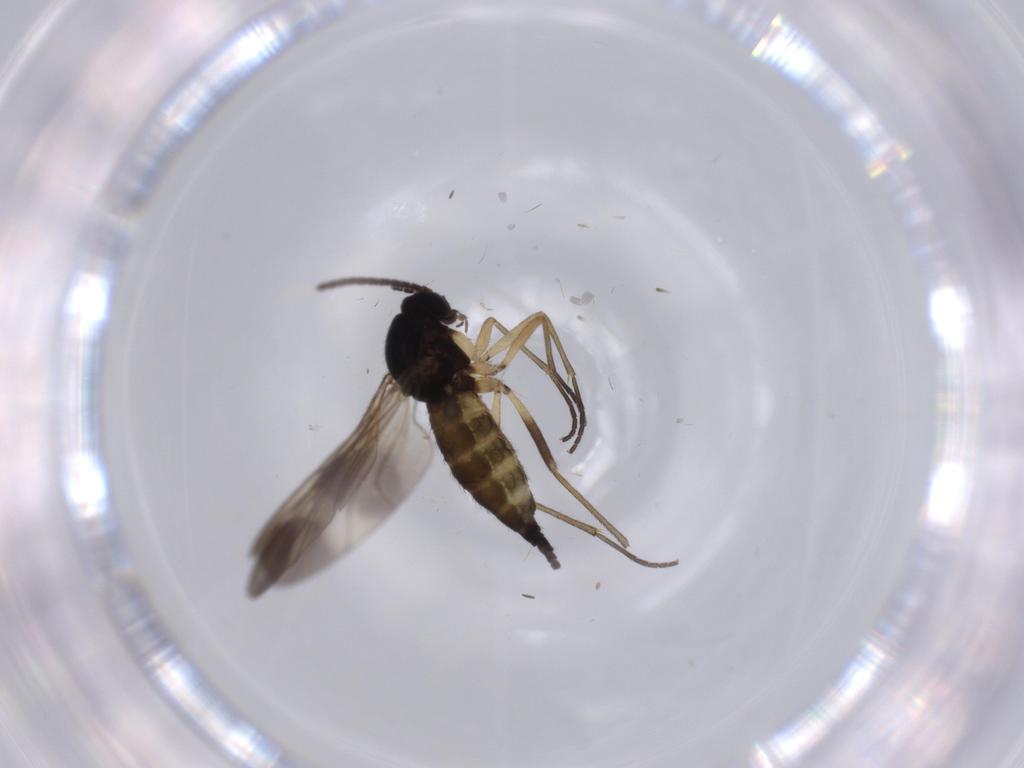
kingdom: Animalia
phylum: Arthropoda
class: Insecta
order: Diptera
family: Sciaridae
